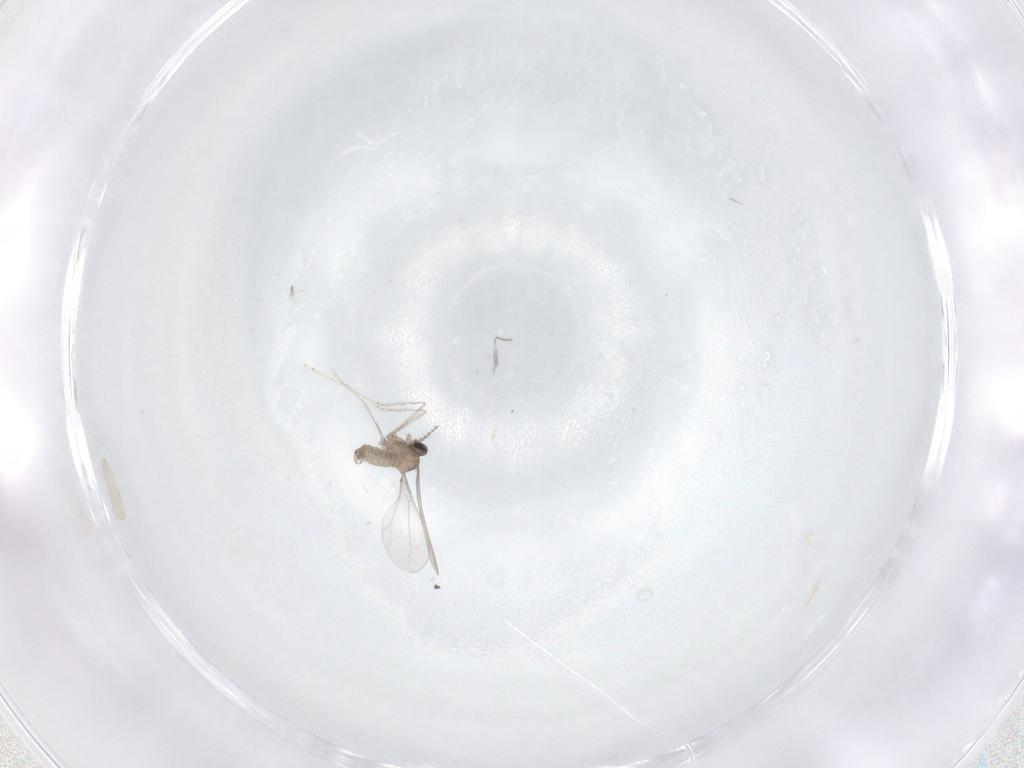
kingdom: Animalia
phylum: Arthropoda
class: Insecta
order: Diptera
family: Cecidomyiidae
